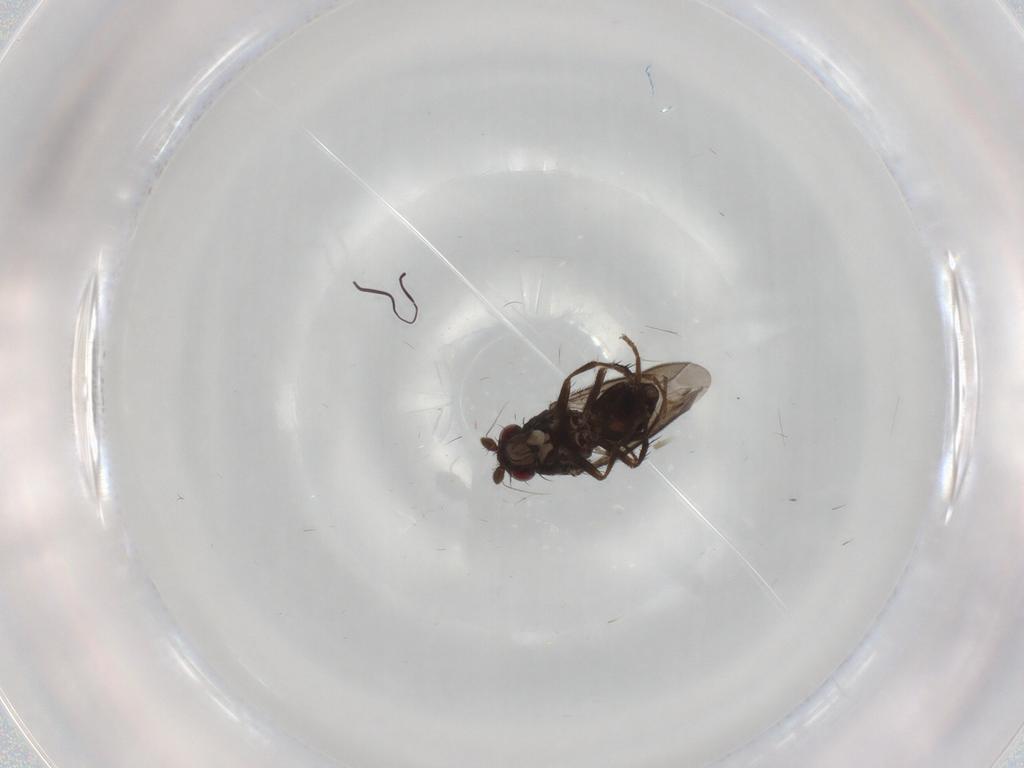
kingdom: Animalia
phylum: Arthropoda
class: Insecta
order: Diptera
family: Sphaeroceridae
